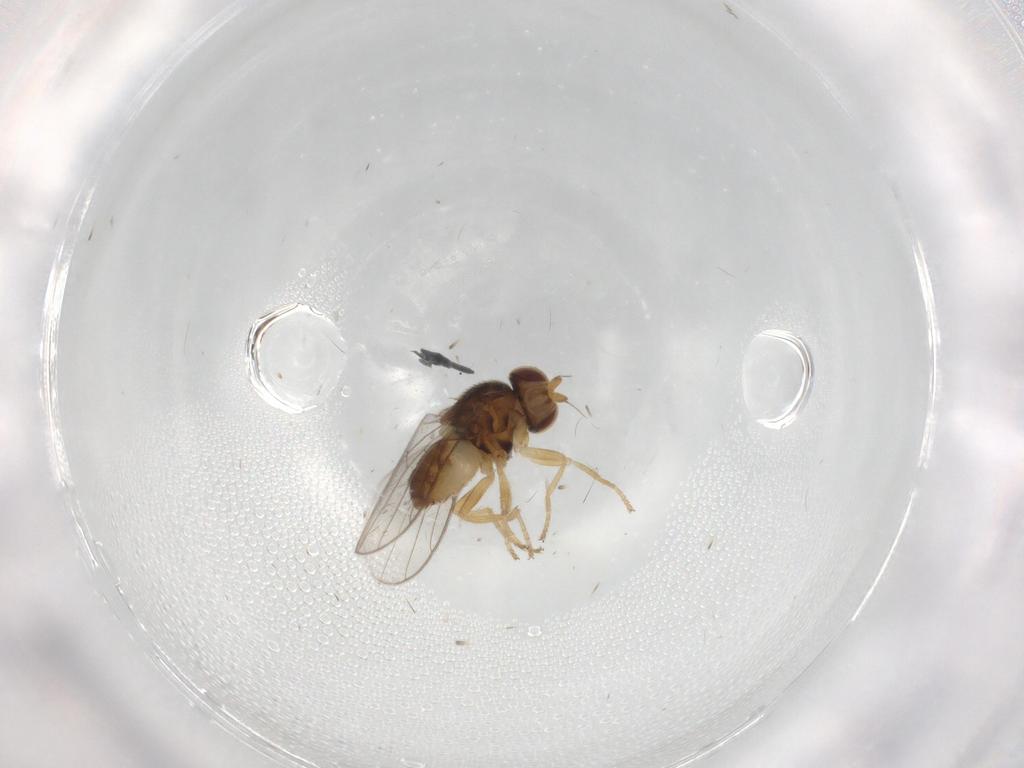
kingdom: Animalia
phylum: Arthropoda
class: Insecta
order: Diptera
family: Chloropidae
